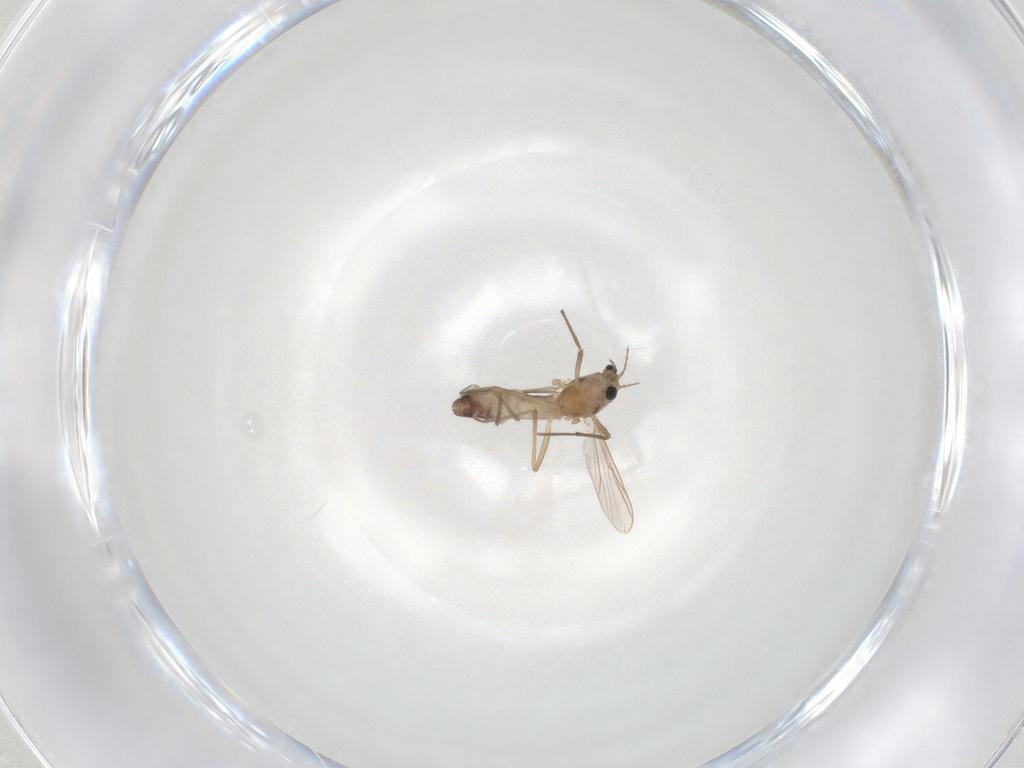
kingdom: Animalia
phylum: Arthropoda
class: Insecta
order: Diptera
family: Chironomidae
